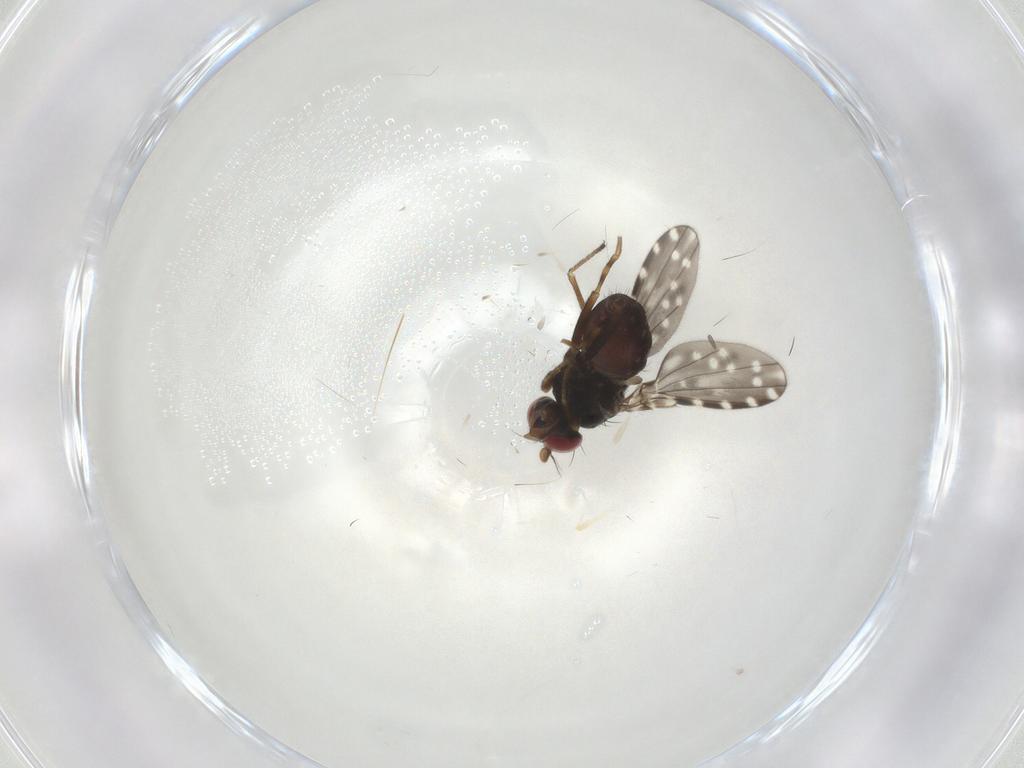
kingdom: Animalia
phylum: Arthropoda
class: Insecta
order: Diptera
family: Ephydridae
